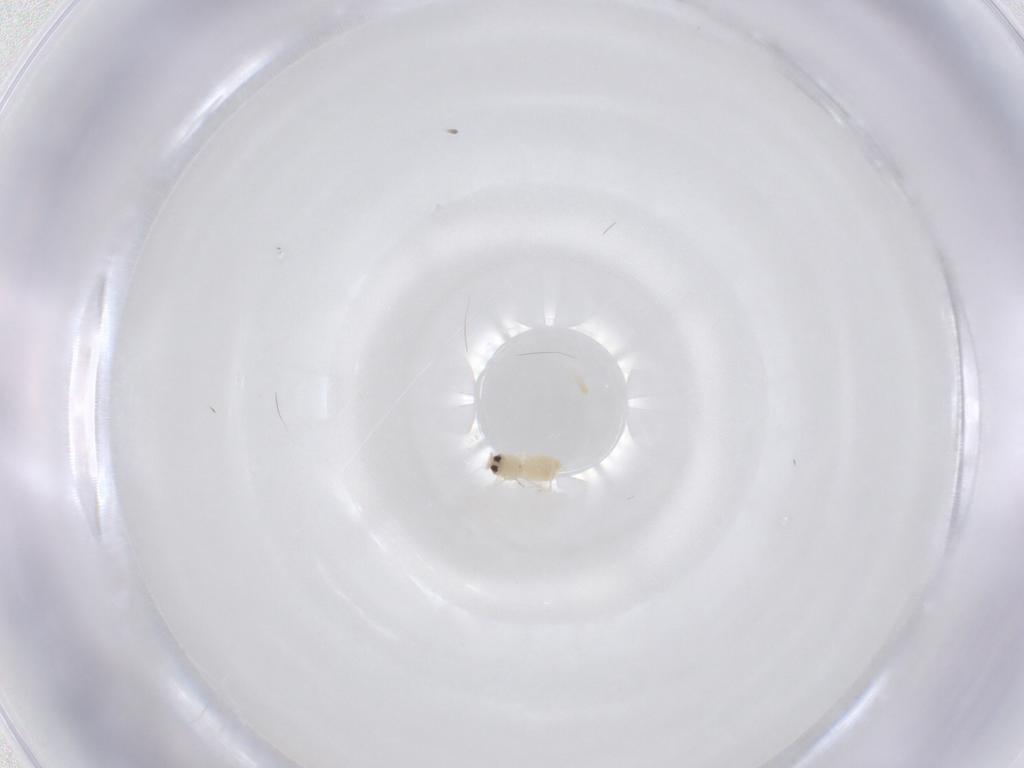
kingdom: Animalia
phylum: Arthropoda
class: Insecta
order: Hemiptera
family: Aleyrodidae
